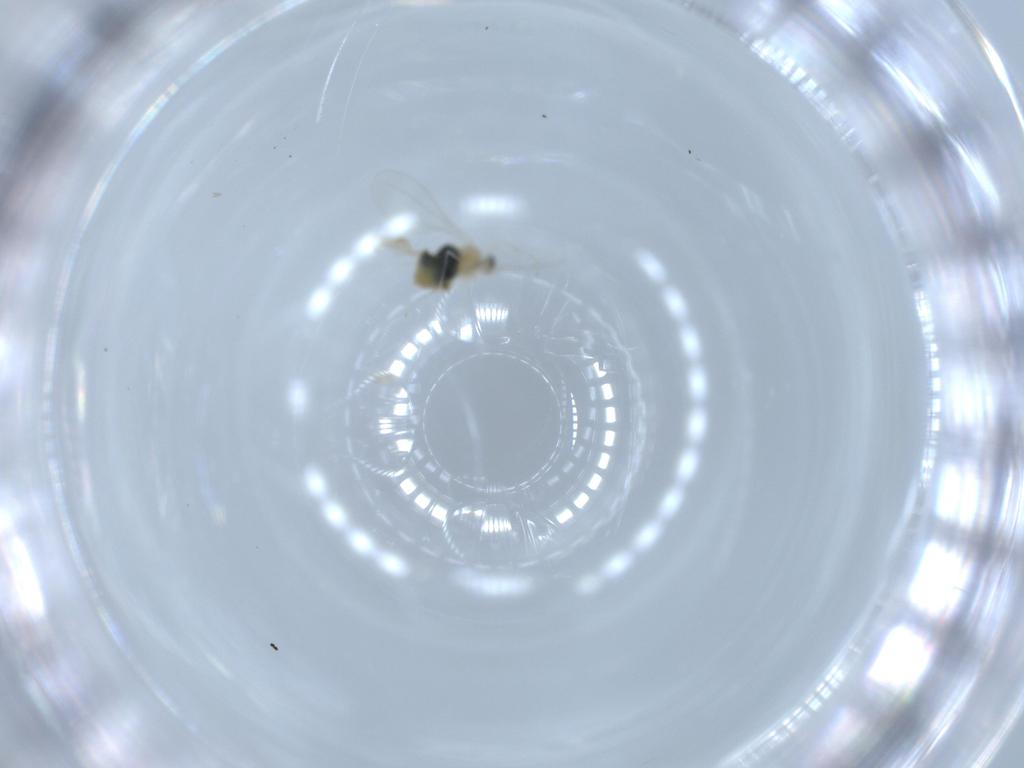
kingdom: Animalia
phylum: Arthropoda
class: Insecta
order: Diptera
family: Cecidomyiidae
